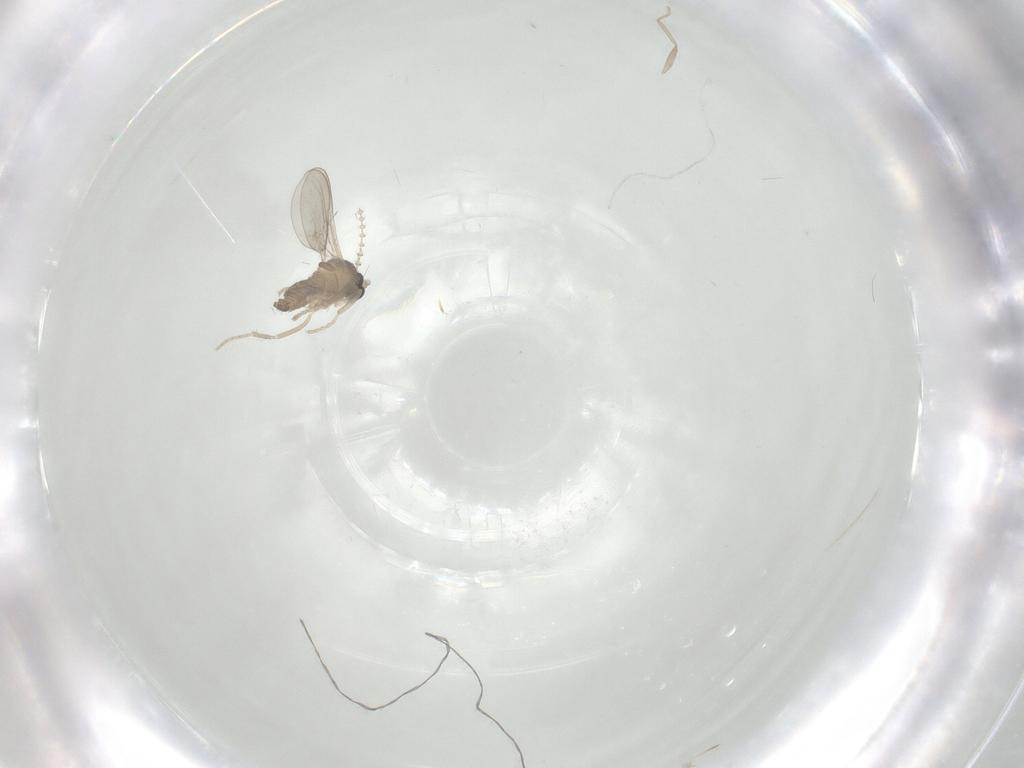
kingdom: Animalia
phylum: Arthropoda
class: Insecta
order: Diptera
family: Cecidomyiidae
